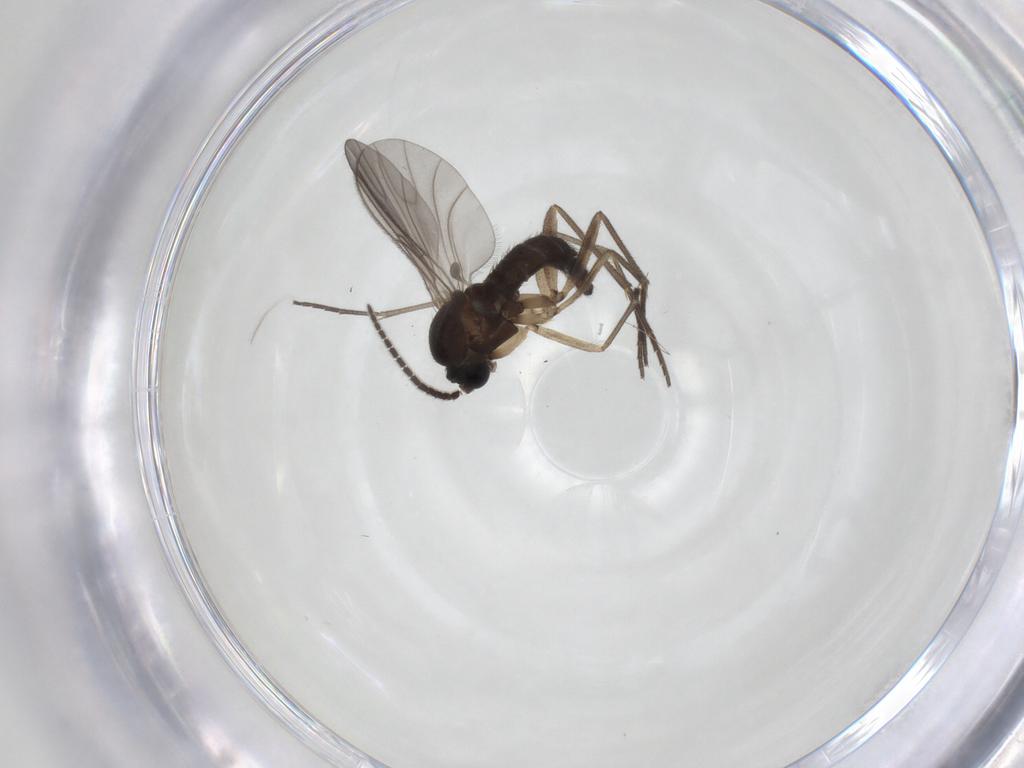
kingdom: Animalia
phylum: Arthropoda
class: Insecta
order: Diptera
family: Sciaridae
